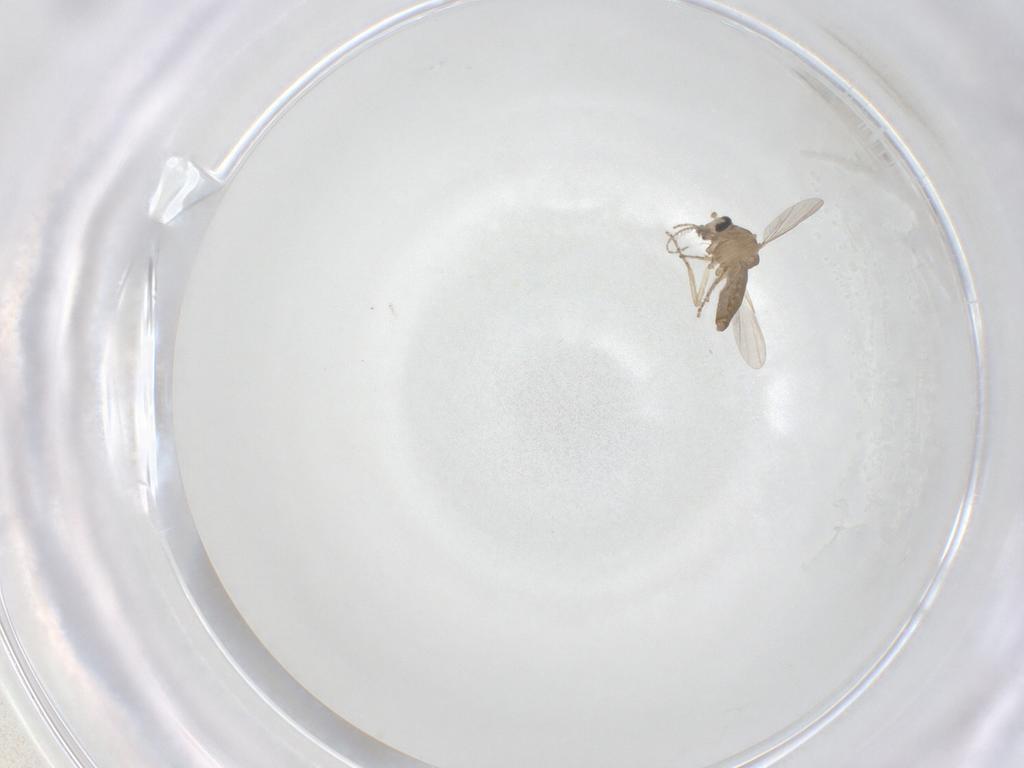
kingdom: Animalia
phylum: Arthropoda
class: Insecta
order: Diptera
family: Ceratopogonidae
